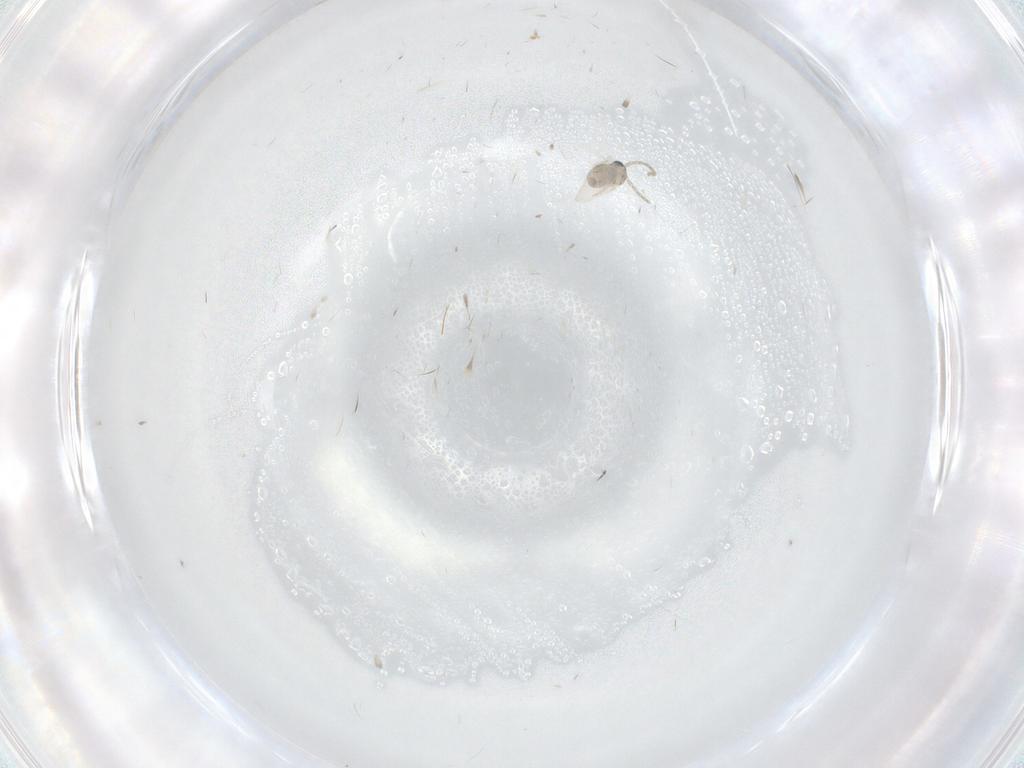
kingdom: Animalia
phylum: Arthropoda
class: Insecta
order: Diptera
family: Cecidomyiidae
